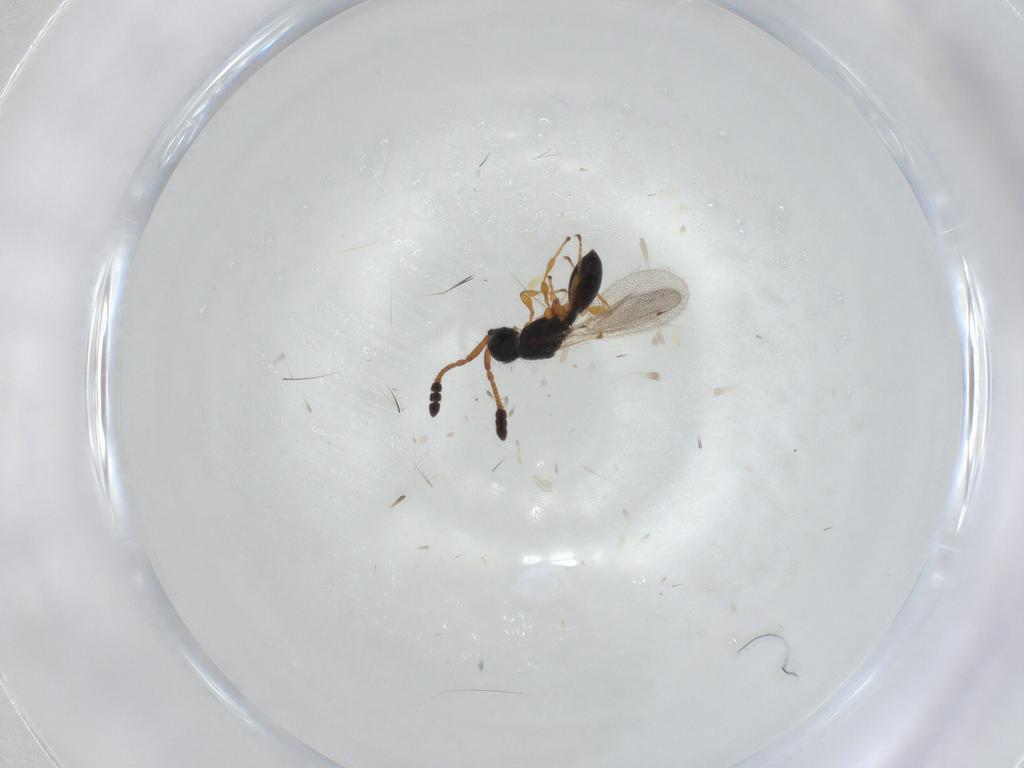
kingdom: Animalia
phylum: Arthropoda
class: Insecta
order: Hymenoptera
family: Diapriidae
